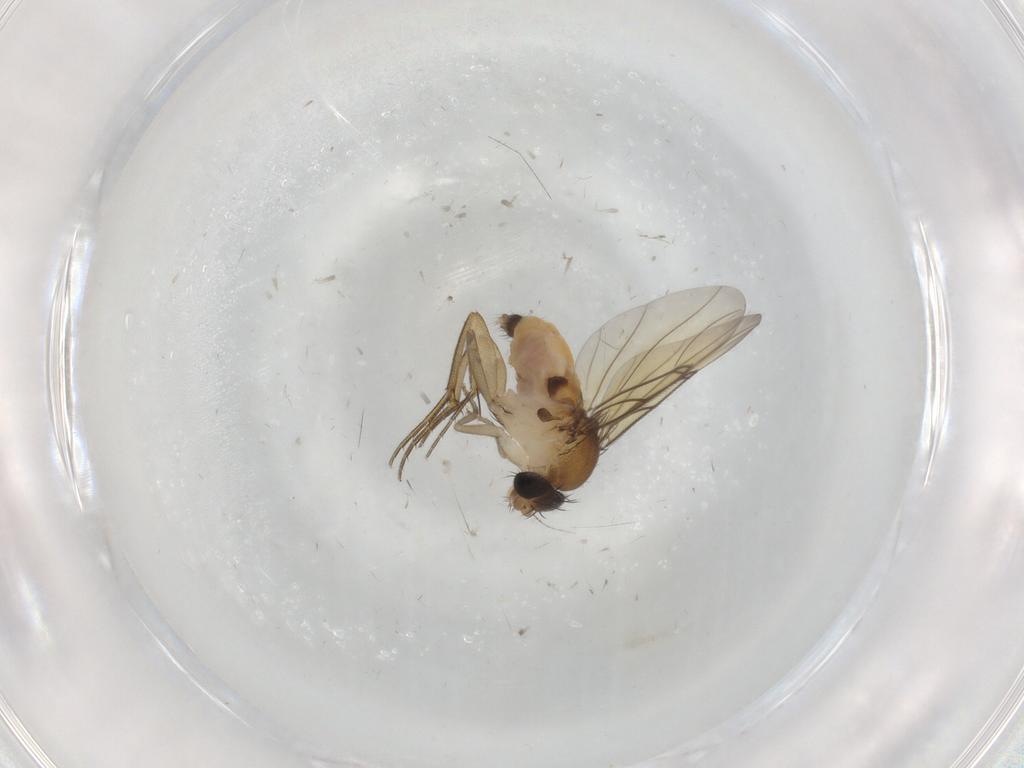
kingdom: Animalia
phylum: Arthropoda
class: Insecta
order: Diptera
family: Phoridae
